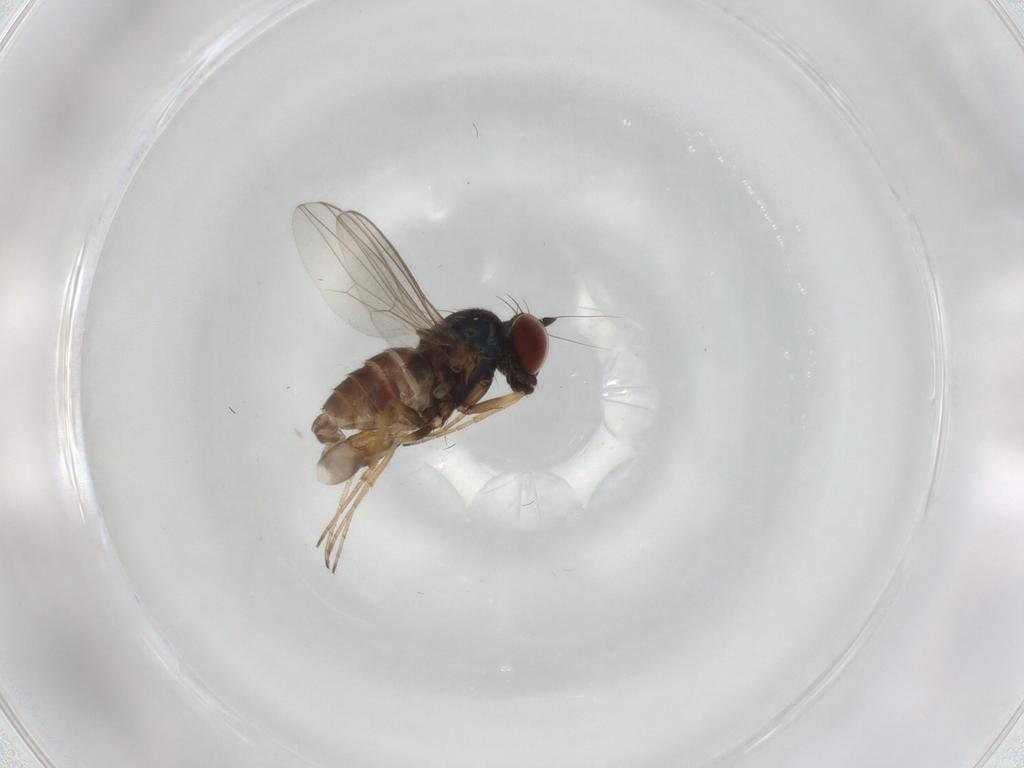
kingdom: Animalia
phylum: Arthropoda
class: Insecta
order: Diptera
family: Dolichopodidae
